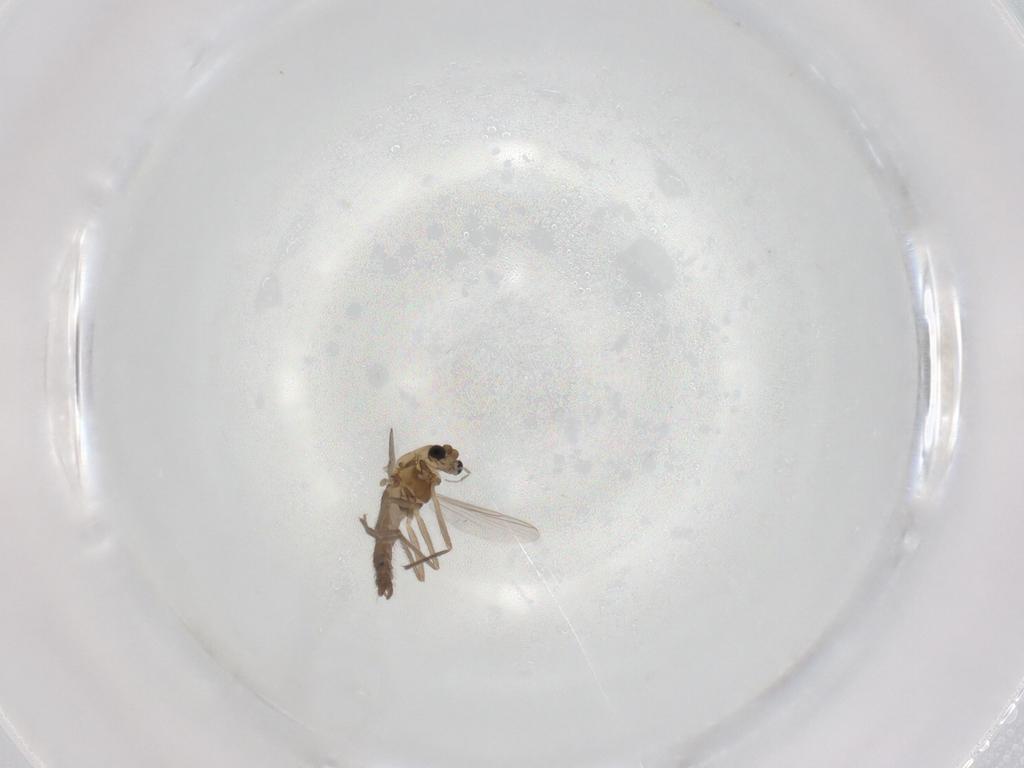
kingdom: Animalia
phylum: Arthropoda
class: Insecta
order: Diptera
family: Chironomidae
